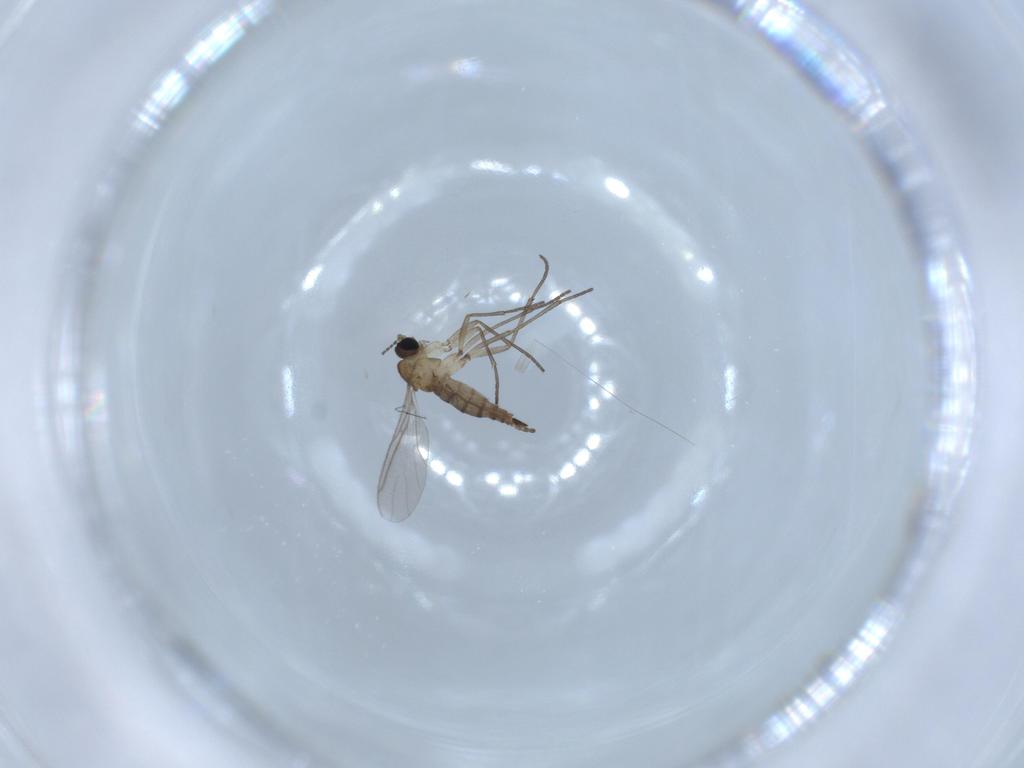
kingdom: Animalia
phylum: Arthropoda
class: Insecta
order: Diptera
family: Sciaridae
